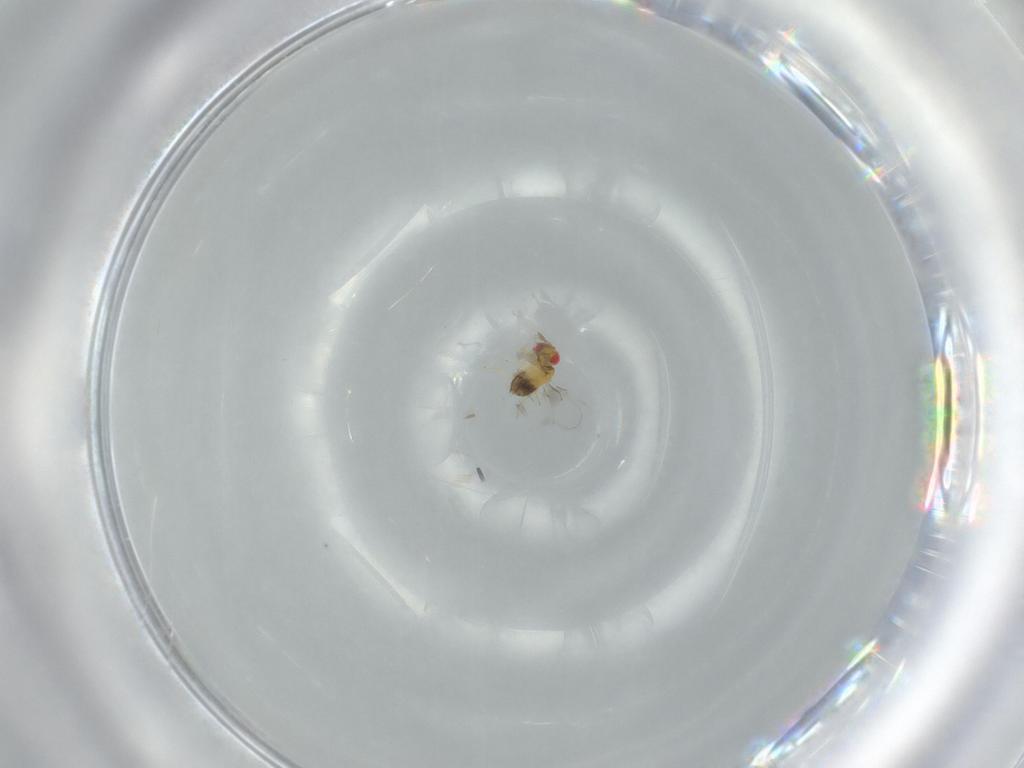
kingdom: Animalia
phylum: Arthropoda
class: Insecta
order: Hymenoptera
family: Trichogrammatidae
